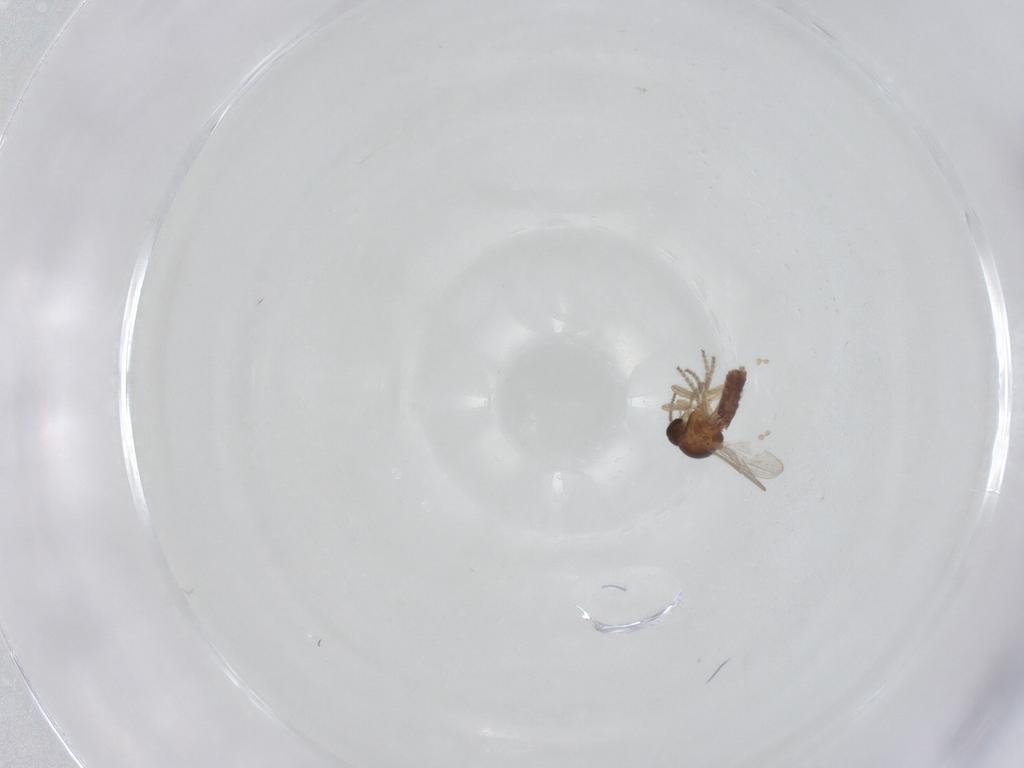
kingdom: Animalia
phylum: Arthropoda
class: Insecta
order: Diptera
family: Ceratopogonidae
